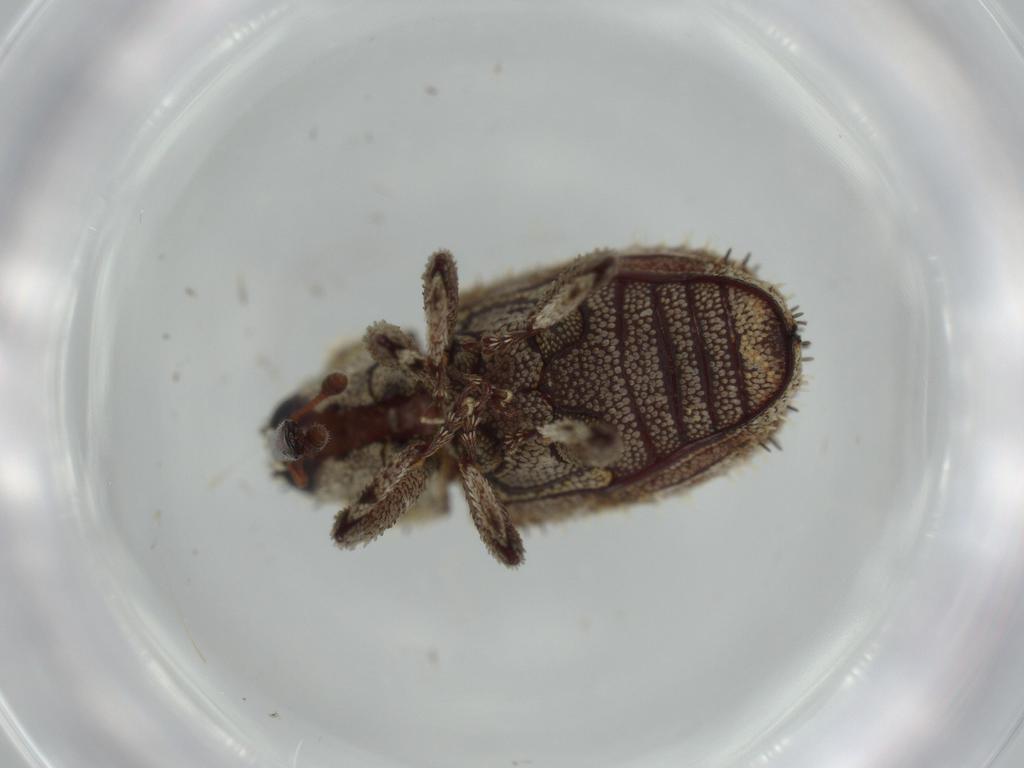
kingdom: Animalia
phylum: Arthropoda
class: Insecta
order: Coleoptera
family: Curculionidae
